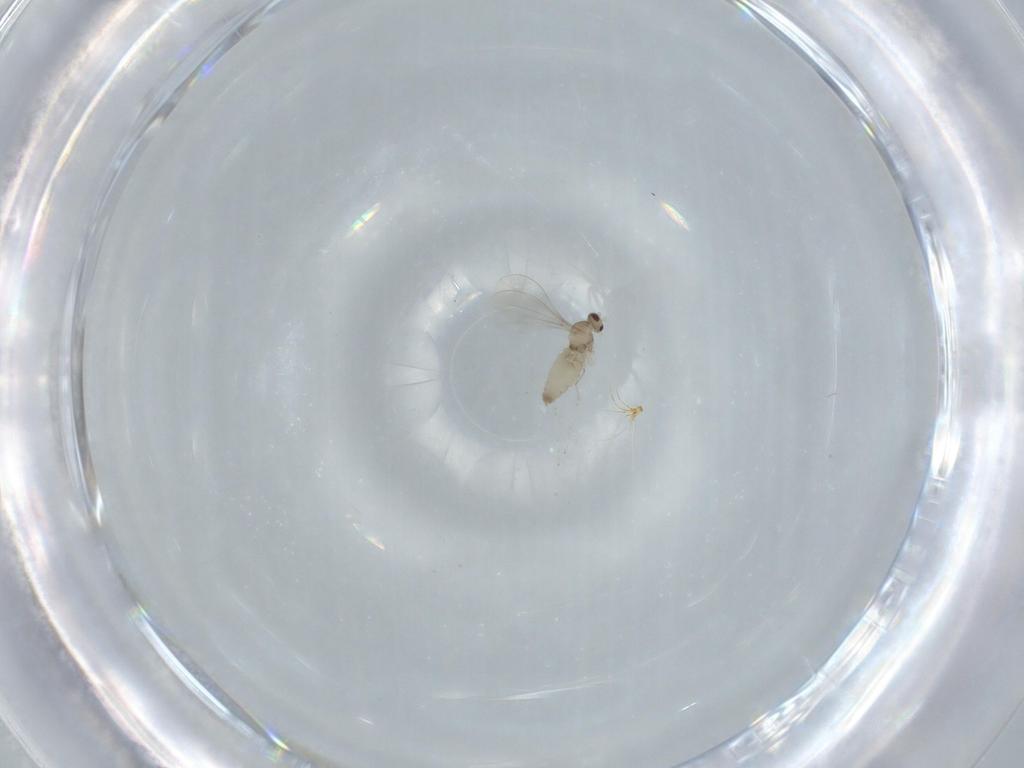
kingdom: Animalia
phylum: Arthropoda
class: Insecta
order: Diptera
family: Cecidomyiidae
